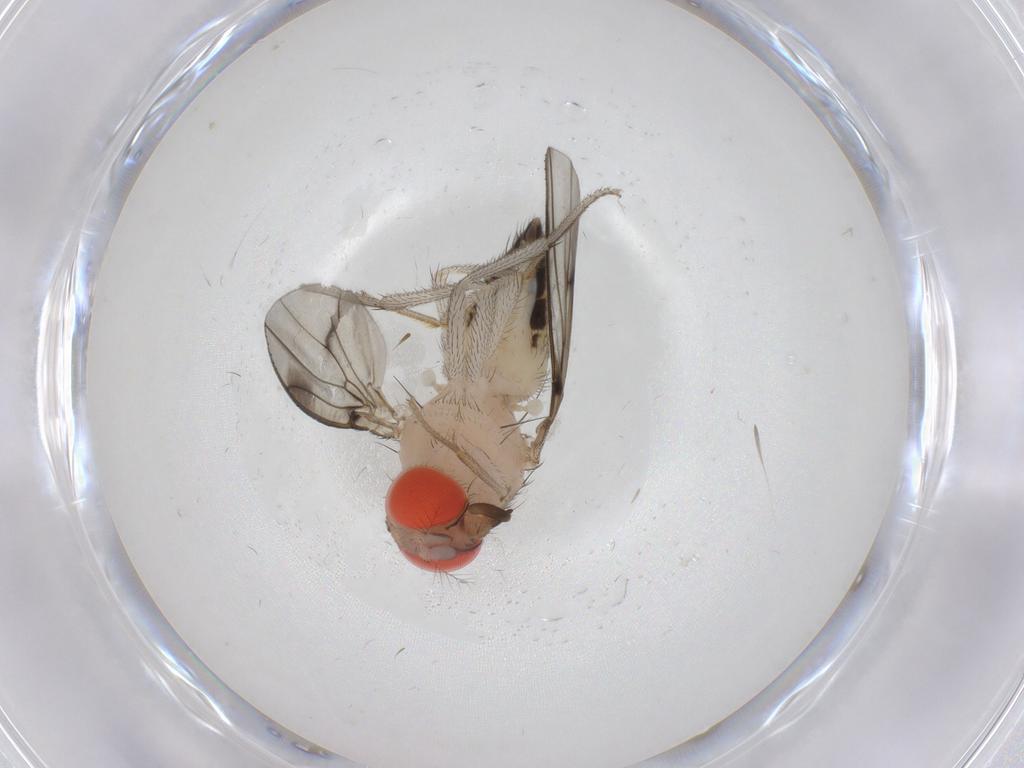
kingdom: Animalia
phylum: Arthropoda
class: Insecta
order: Diptera
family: Drosophilidae
